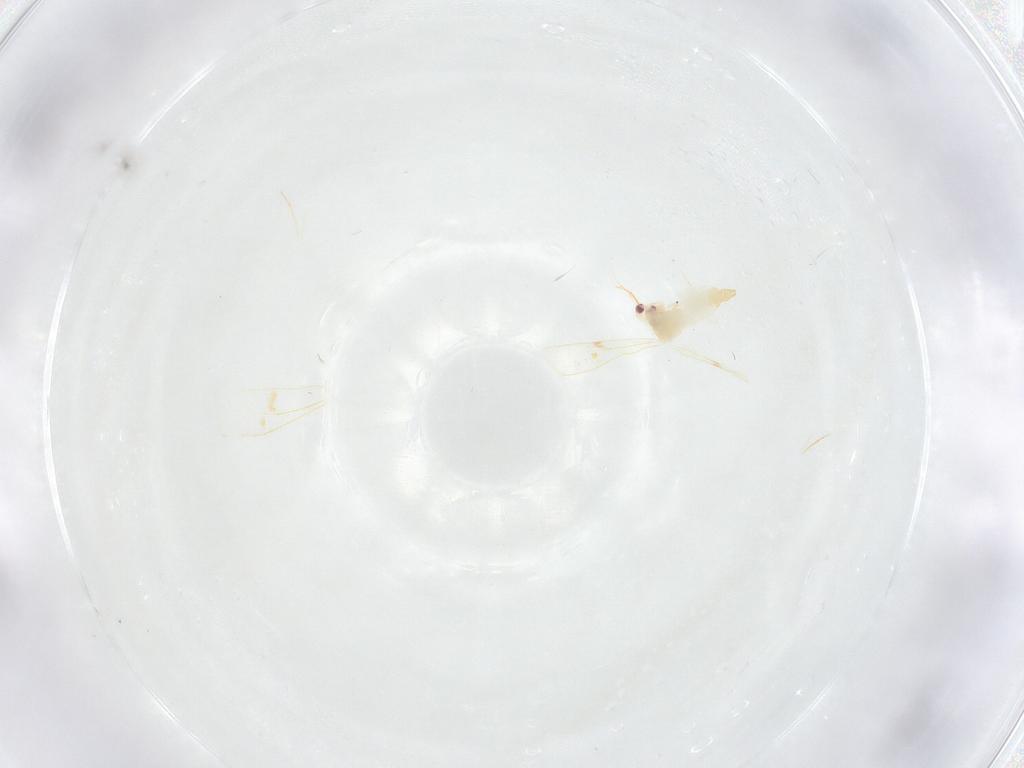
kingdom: Animalia
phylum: Arthropoda
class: Insecta
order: Hemiptera
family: Aleyrodidae
